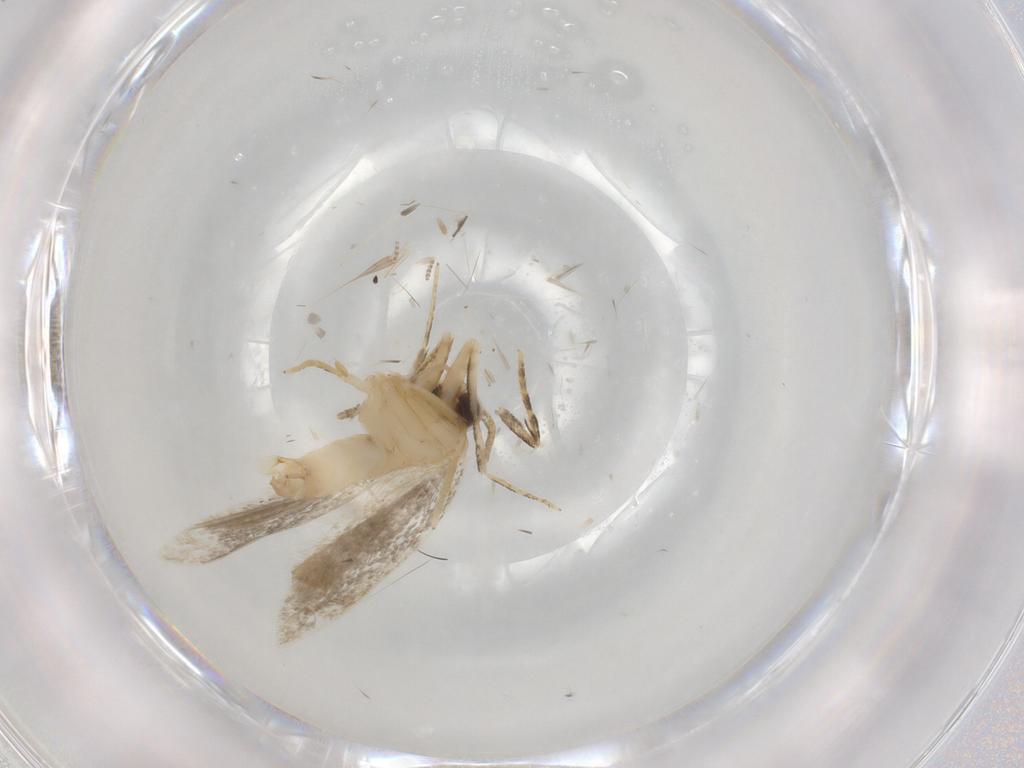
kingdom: Animalia
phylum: Arthropoda
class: Insecta
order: Lepidoptera
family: Autostichidae
